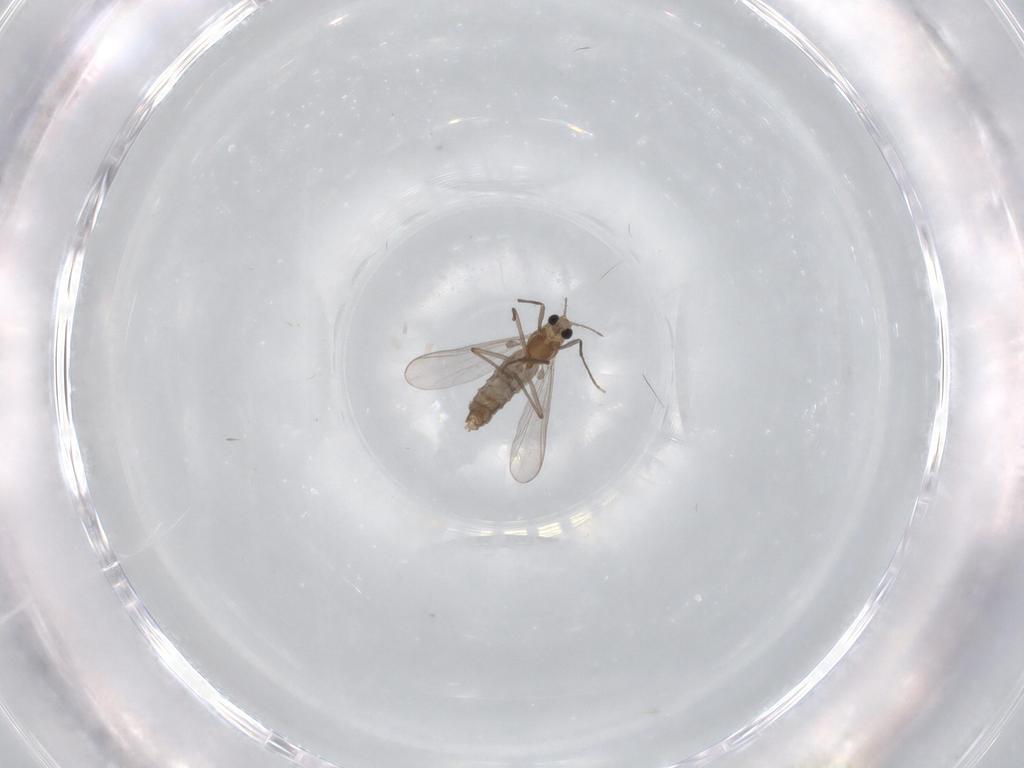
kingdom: Animalia
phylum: Arthropoda
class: Insecta
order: Diptera
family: Chironomidae
